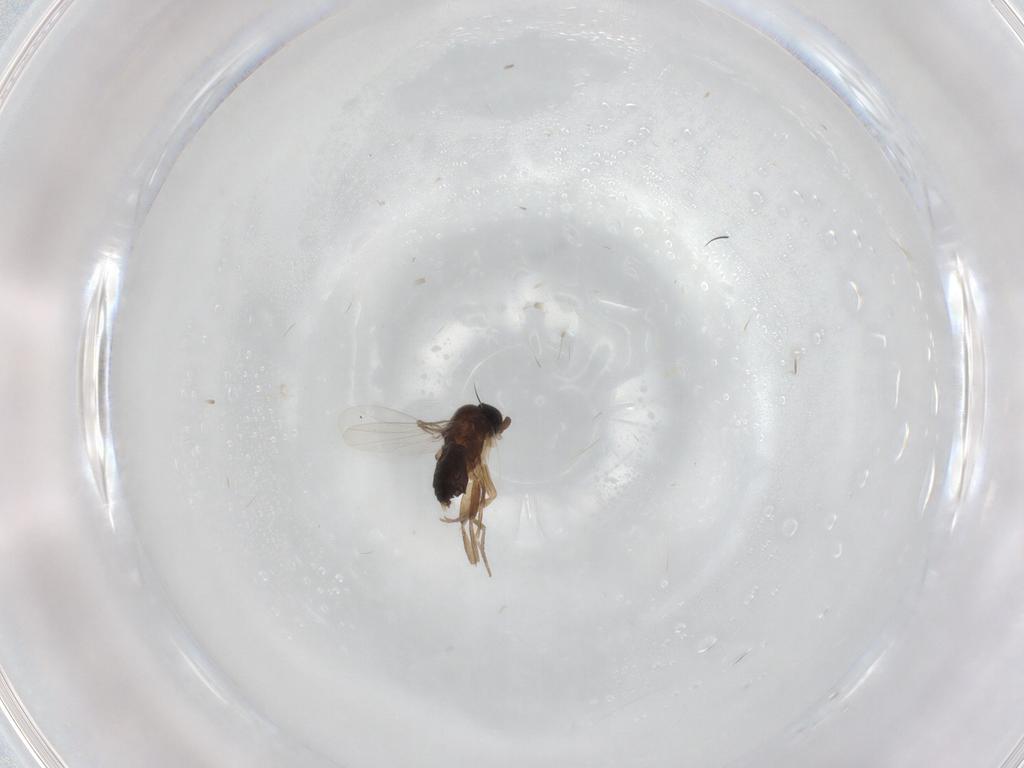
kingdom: Animalia
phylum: Arthropoda
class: Insecta
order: Diptera
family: Phoridae
